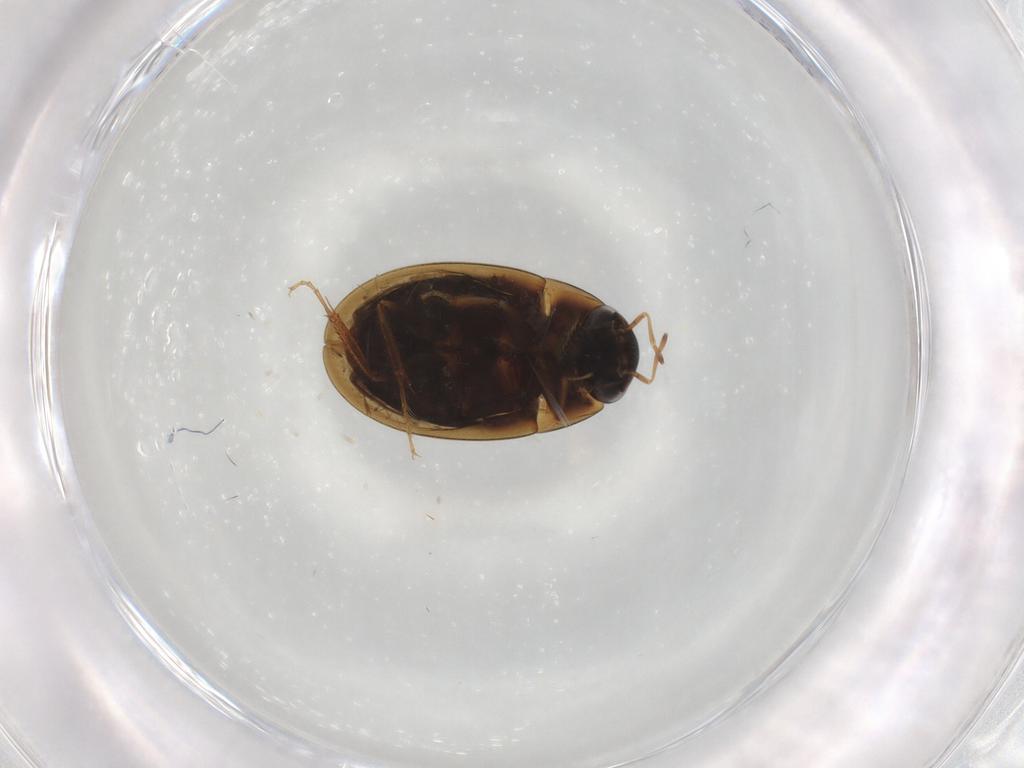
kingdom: Animalia
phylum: Arthropoda
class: Insecta
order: Coleoptera
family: Hydrophilidae
